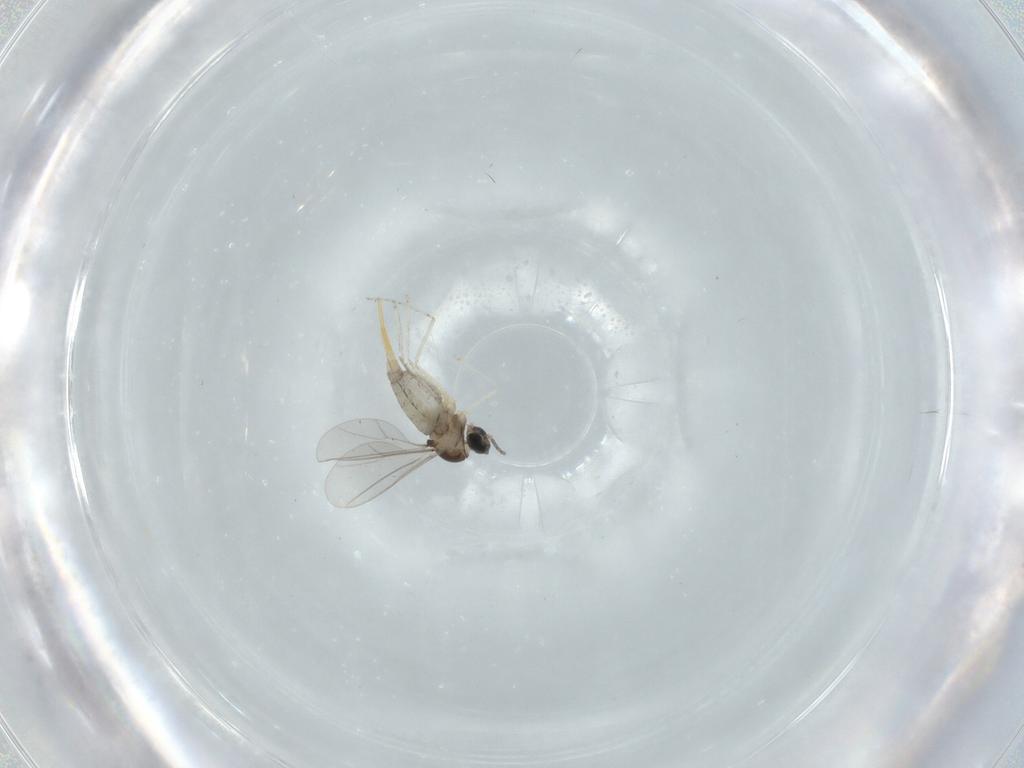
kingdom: Animalia
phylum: Arthropoda
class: Insecta
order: Diptera
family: Cecidomyiidae
